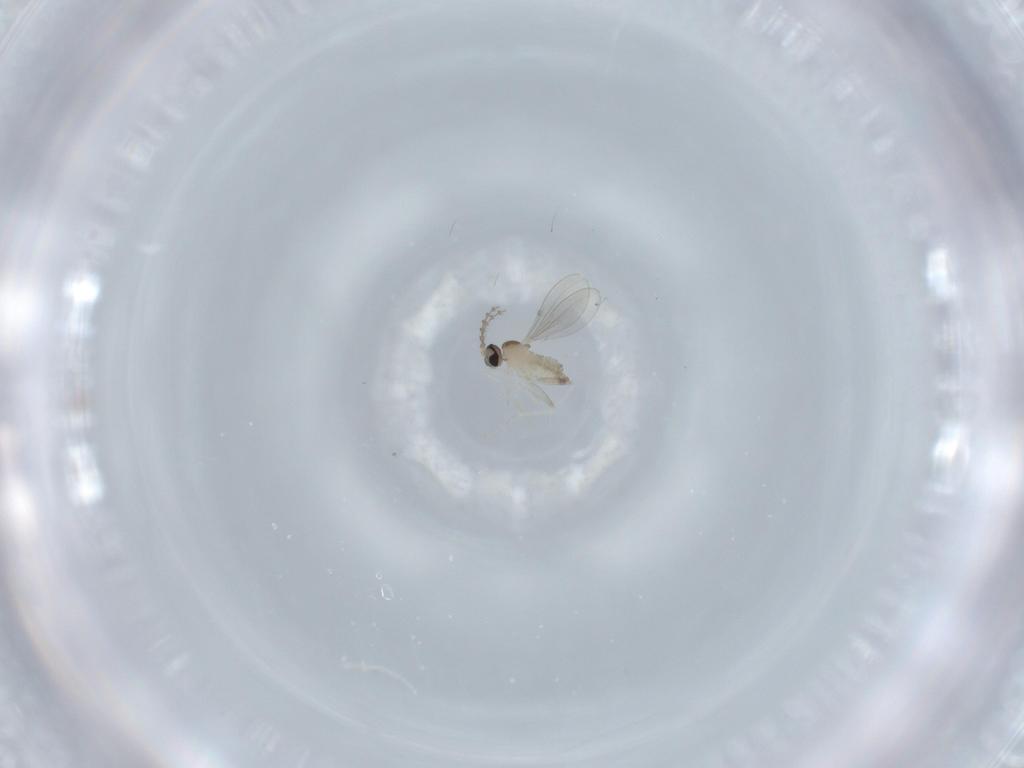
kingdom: Animalia
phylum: Arthropoda
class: Insecta
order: Diptera
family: Cecidomyiidae
